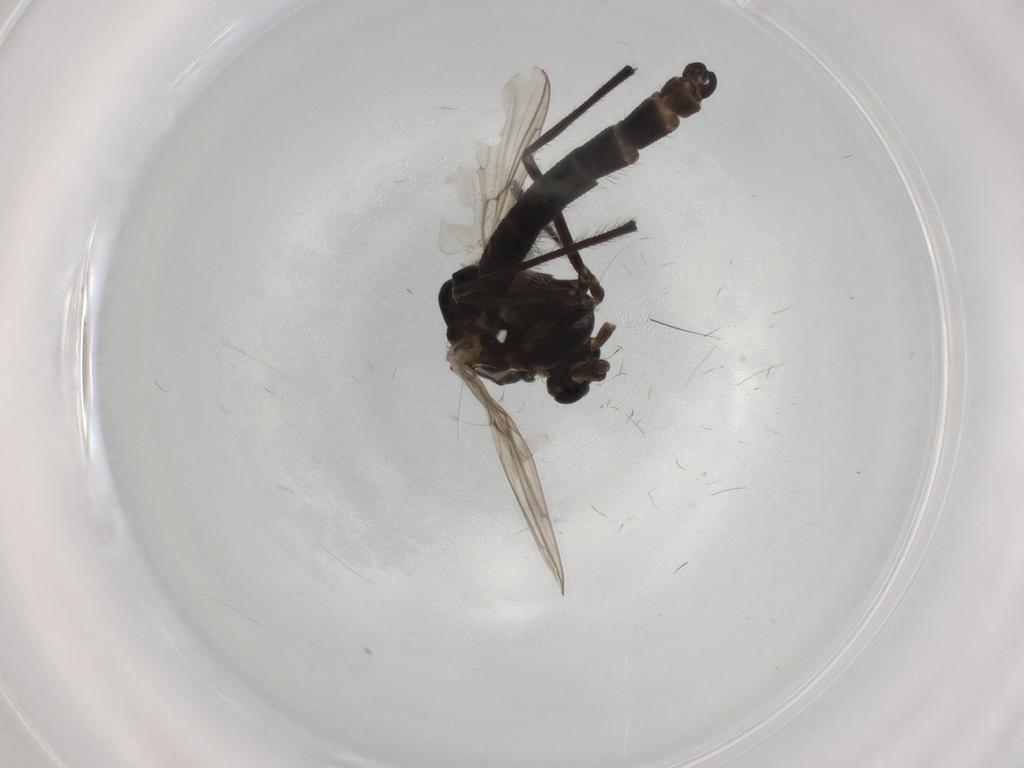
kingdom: Animalia
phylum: Arthropoda
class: Insecta
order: Diptera
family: Chironomidae
